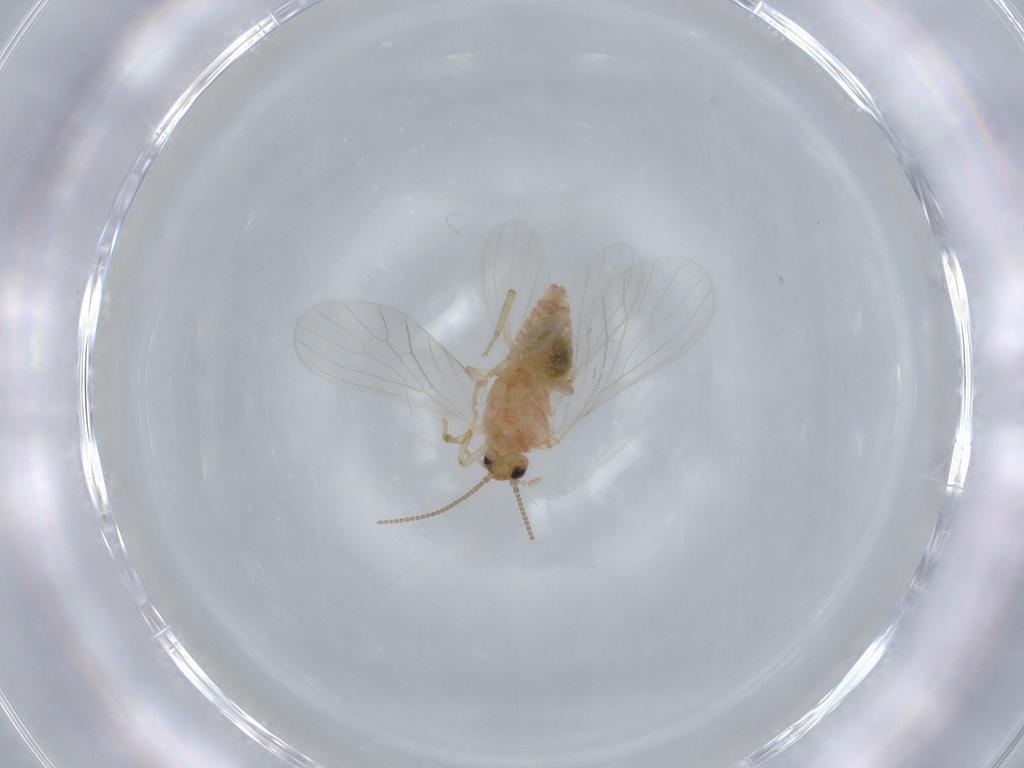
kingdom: Animalia
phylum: Arthropoda
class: Insecta
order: Neuroptera
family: Coniopterygidae
